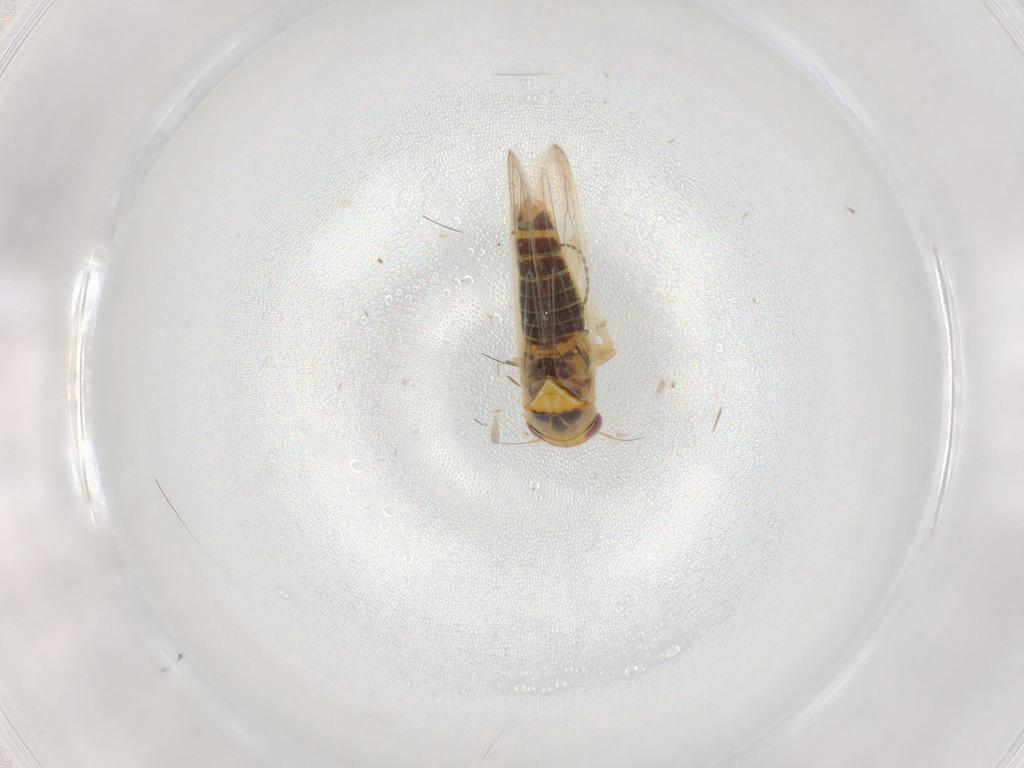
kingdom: Animalia
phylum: Arthropoda
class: Insecta
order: Hemiptera
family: Cicadellidae
